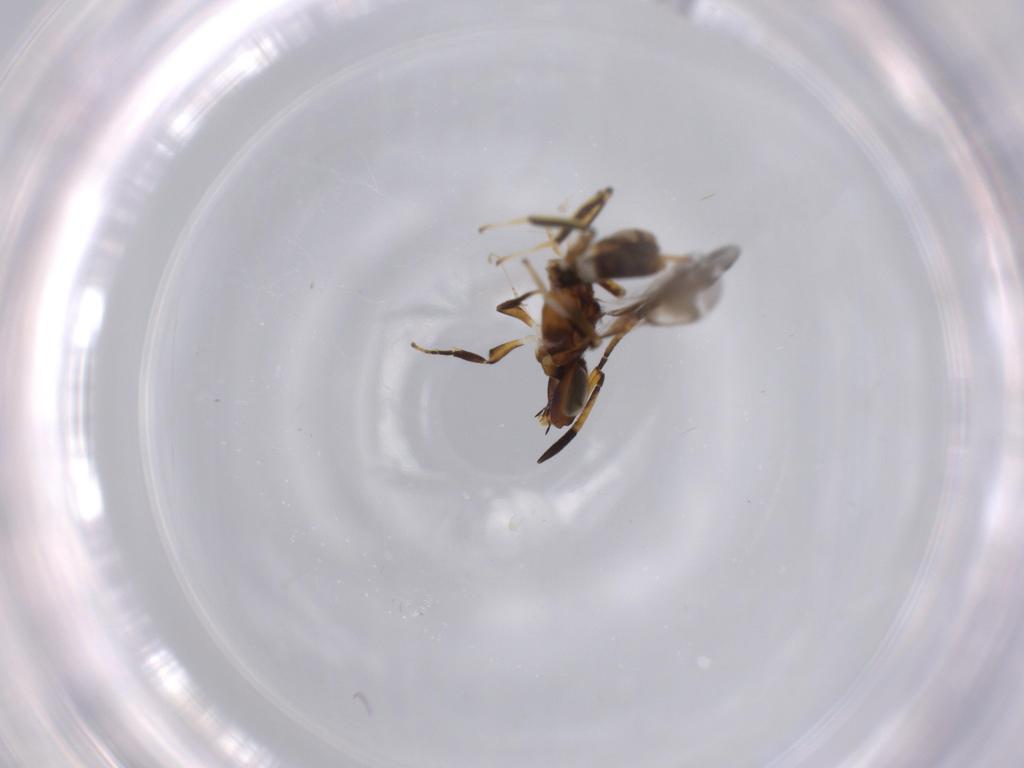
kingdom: Animalia
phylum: Arthropoda
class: Insecta
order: Hymenoptera
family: Eupelmidae
